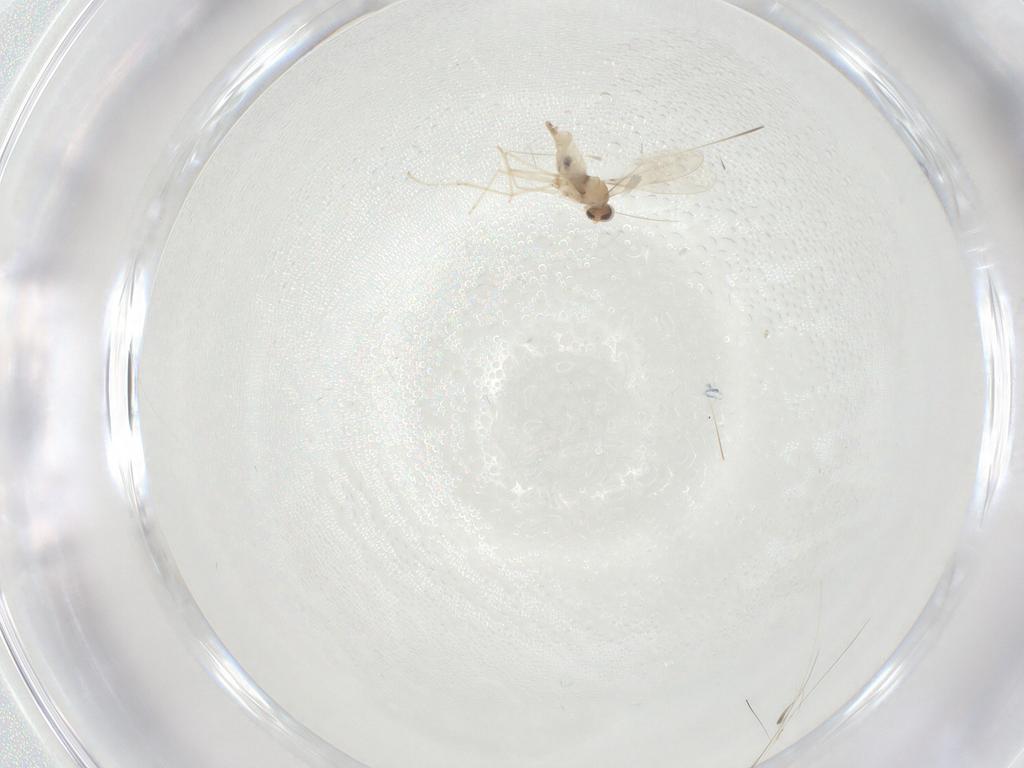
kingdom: Animalia
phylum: Arthropoda
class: Insecta
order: Diptera
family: Cecidomyiidae
